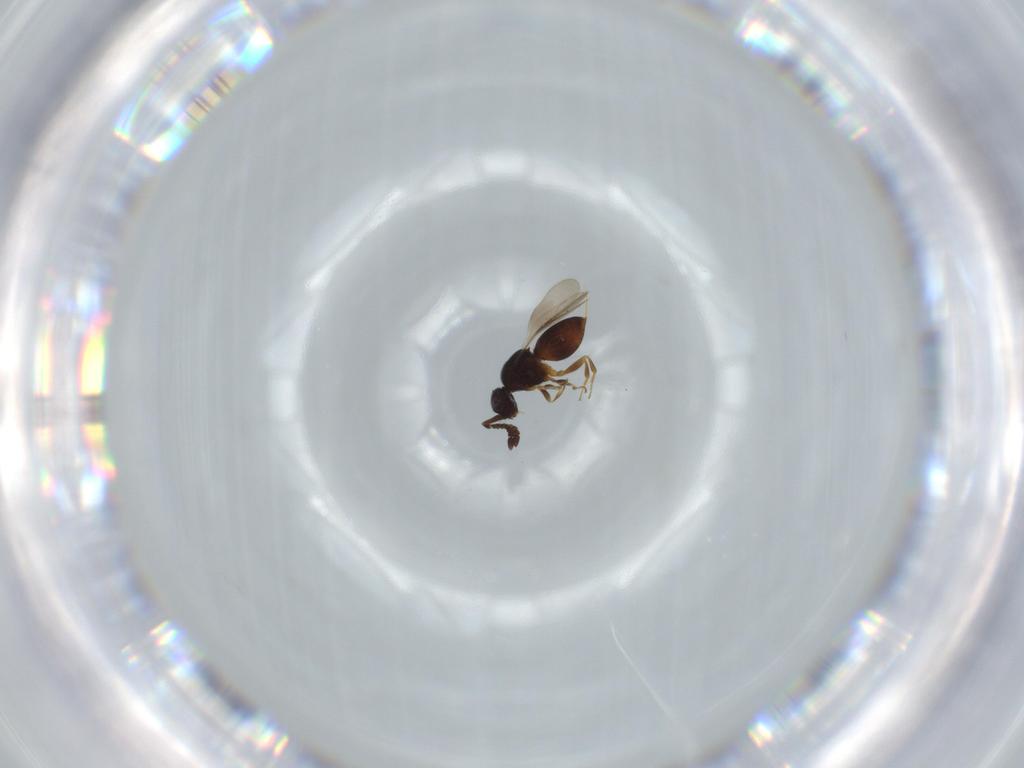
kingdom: Animalia
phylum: Arthropoda
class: Insecta
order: Hymenoptera
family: Ceraphronidae
